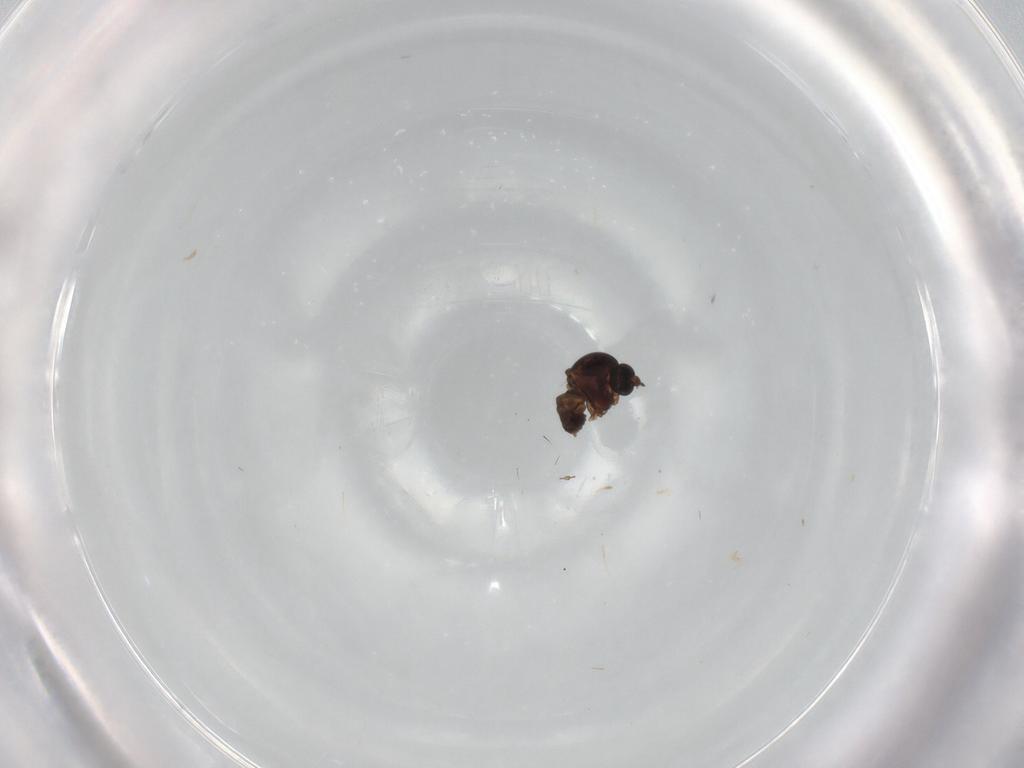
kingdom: Animalia
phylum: Arthropoda
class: Insecta
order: Diptera
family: Ceratopogonidae
